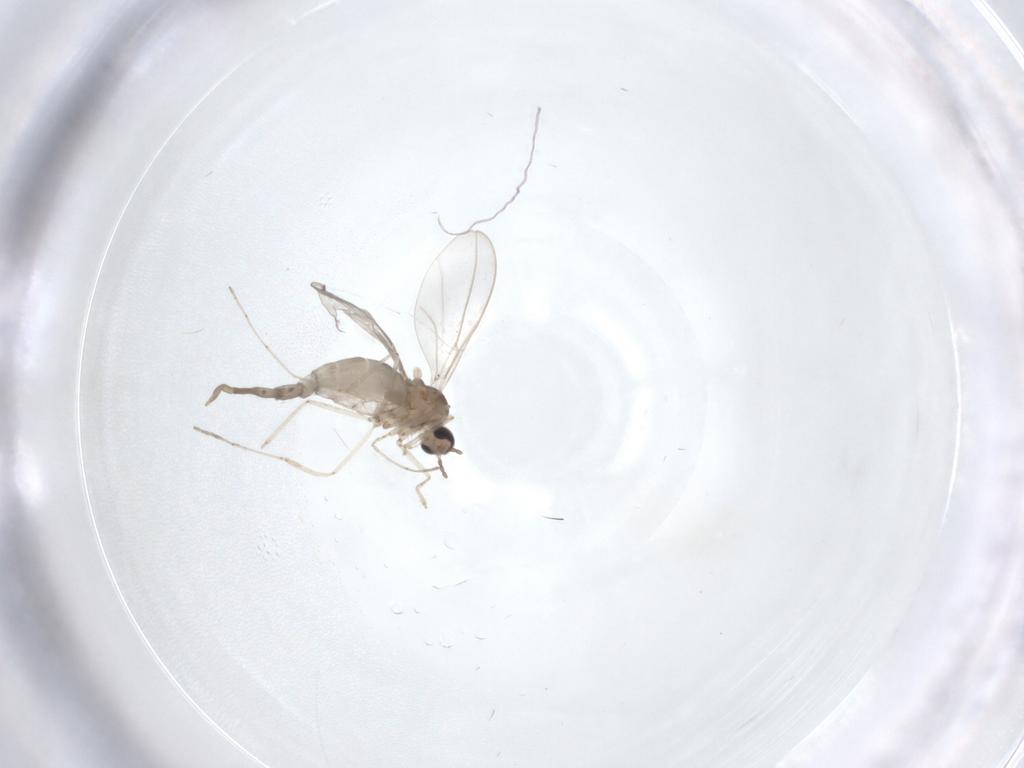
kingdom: Animalia
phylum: Arthropoda
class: Insecta
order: Diptera
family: Cecidomyiidae
